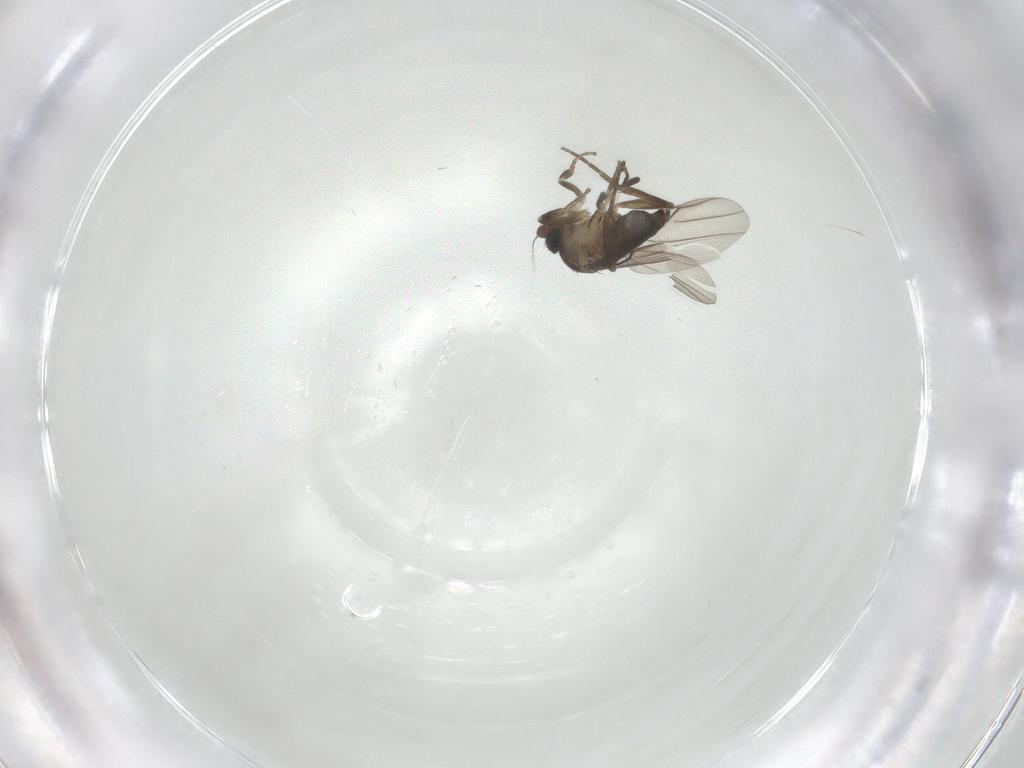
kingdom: Animalia
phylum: Arthropoda
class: Insecta
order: Diptera
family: Phoridae
